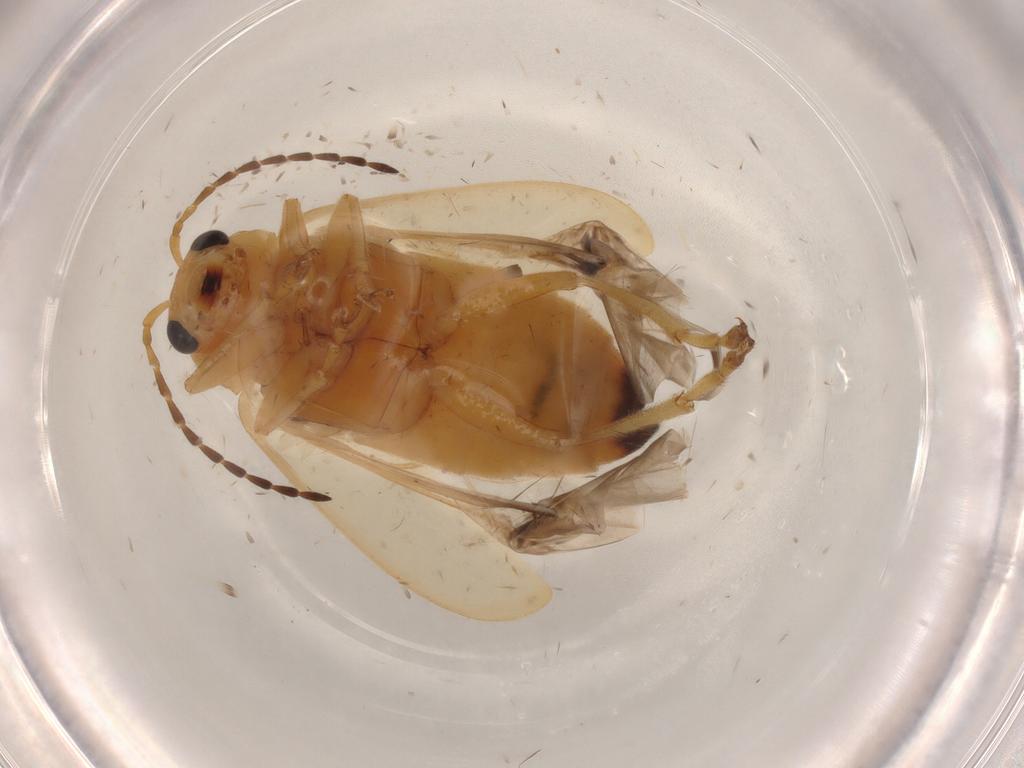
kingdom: Animalia
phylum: Arthropoda
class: Insecta
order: Coleoptera
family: Chrysomelidae
